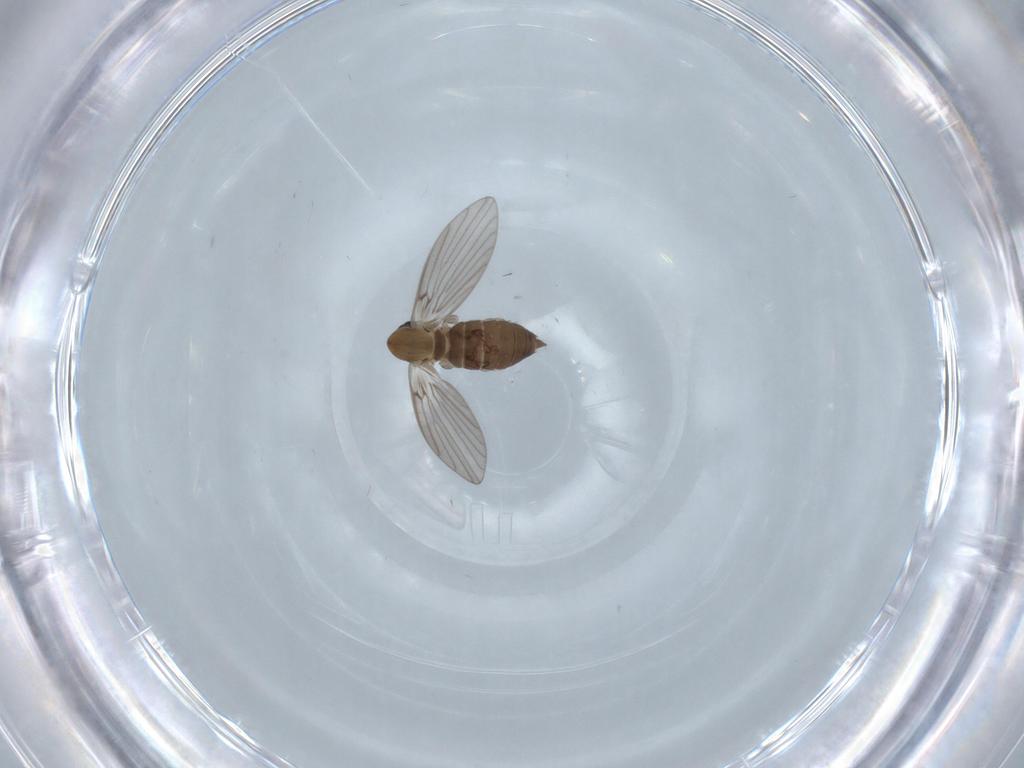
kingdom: Animalia
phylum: Arthropoda
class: Insecta
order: Diptera
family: Psychodidae
